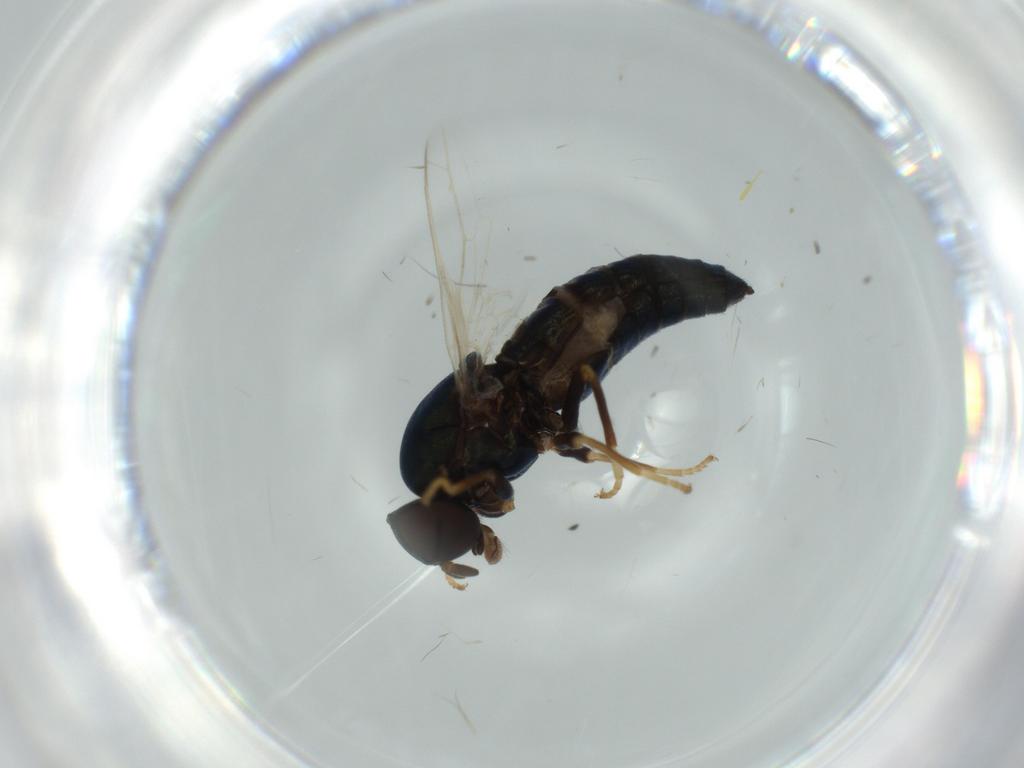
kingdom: Animalia
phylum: Arthropoda
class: Insecta
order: Diptera
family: Scenopinidae
